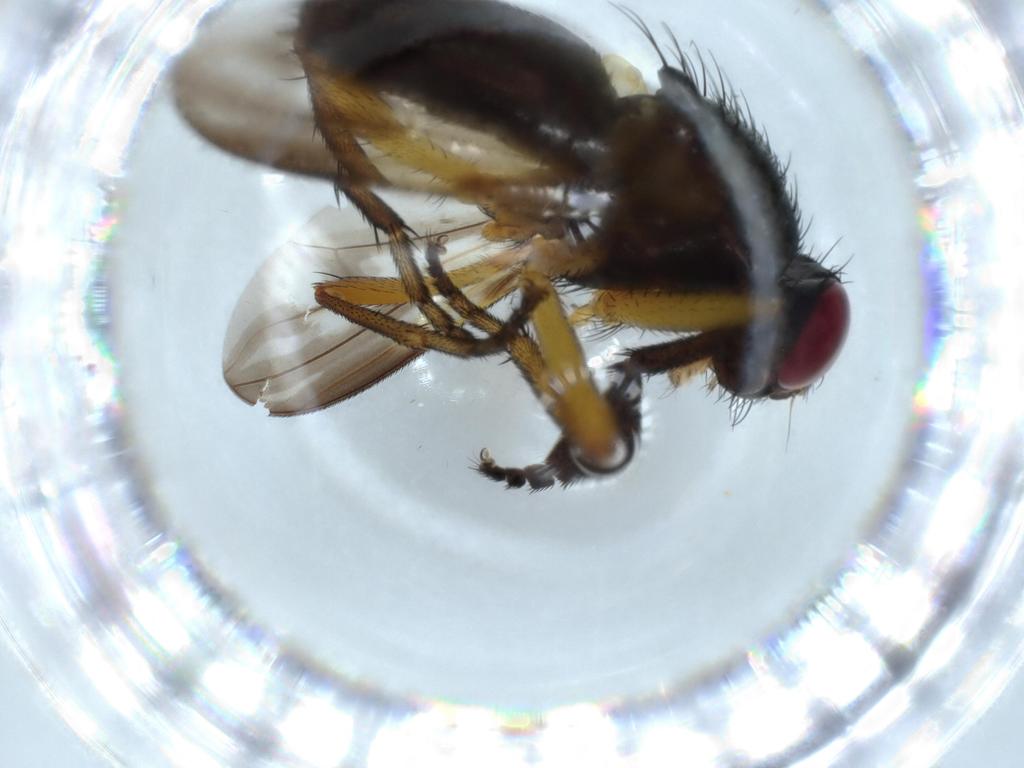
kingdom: Animalia
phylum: Arthropoda
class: Insecta
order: Diptera
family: Calliphoridae
